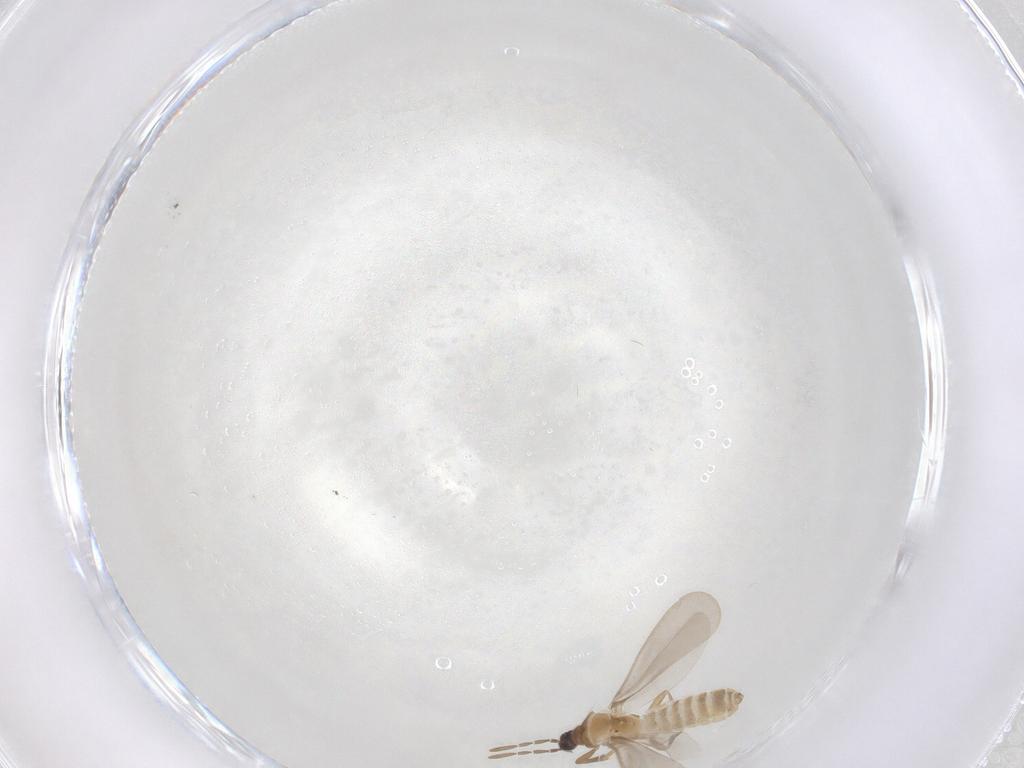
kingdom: Animalia
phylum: Arthropoda
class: Insecta
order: Hemiptera
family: Enicocephalidae
